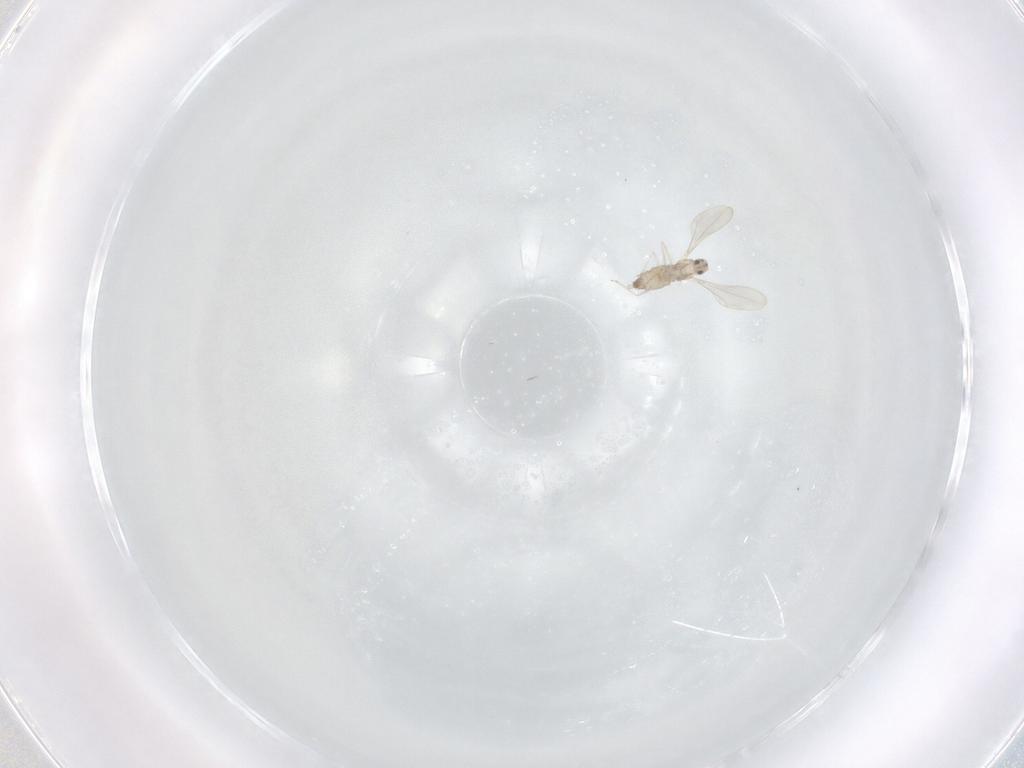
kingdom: Animalia
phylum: Arthropoda
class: Insecta
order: Diptera
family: Cecidomyiidae
